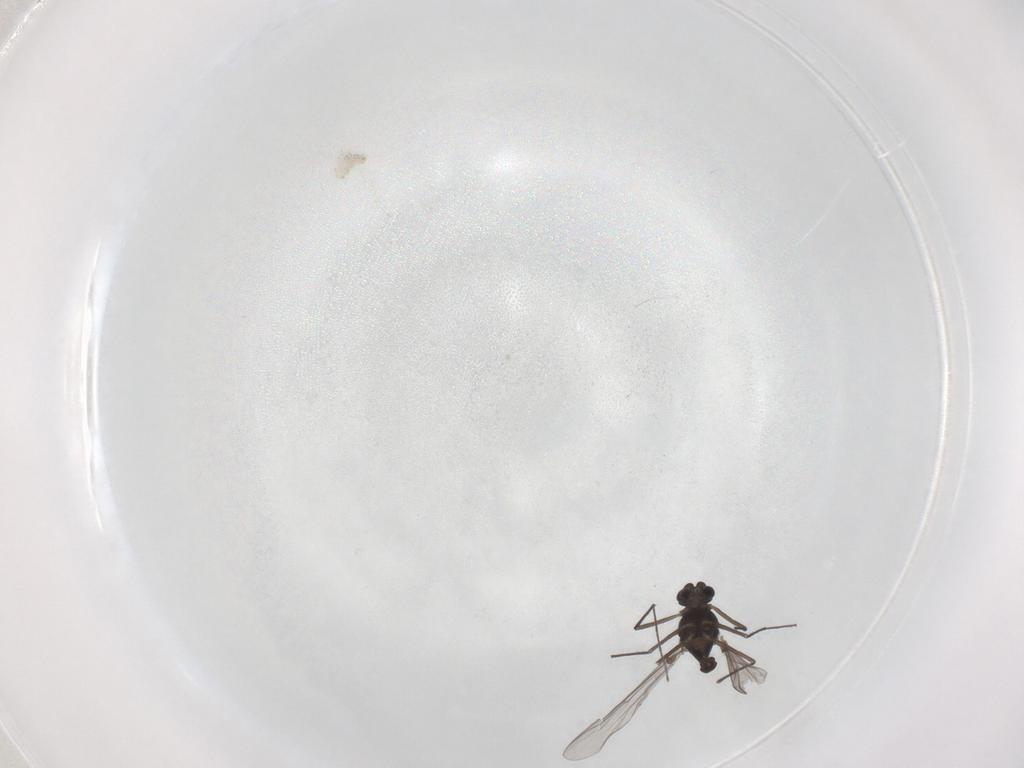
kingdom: Animalia
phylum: Arthropoda
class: Insecta
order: Diptera
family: Chironomidae
